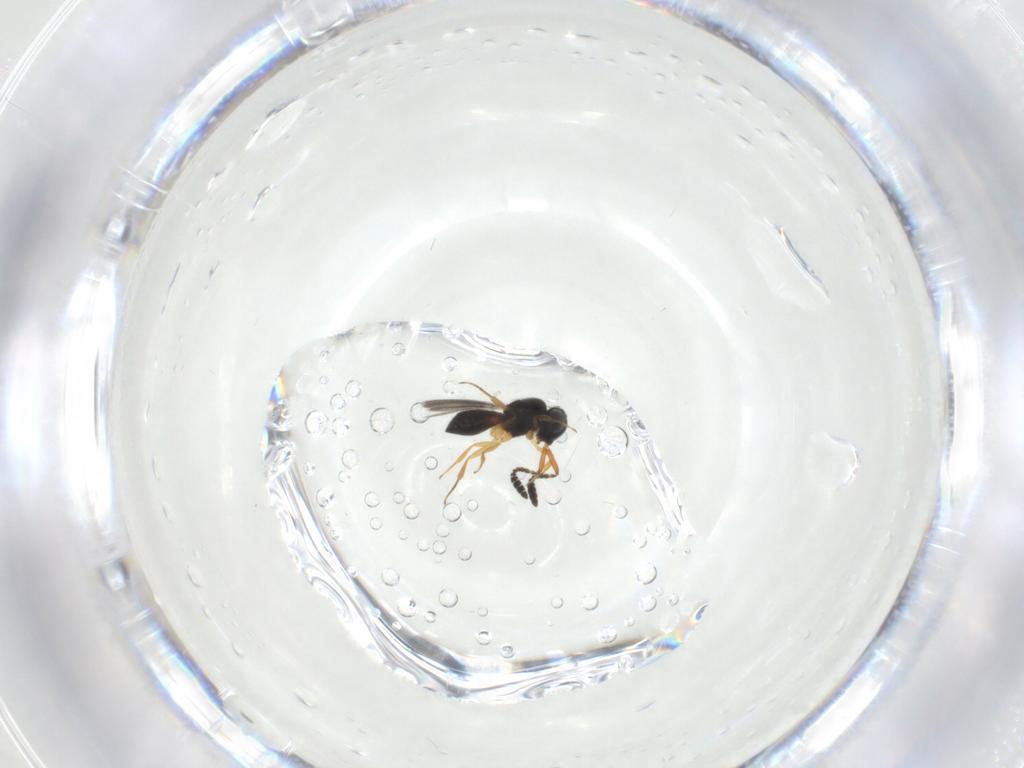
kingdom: Animalia
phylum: Arthropoda
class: Insecta
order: Hymenoptera
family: Scelionidae
